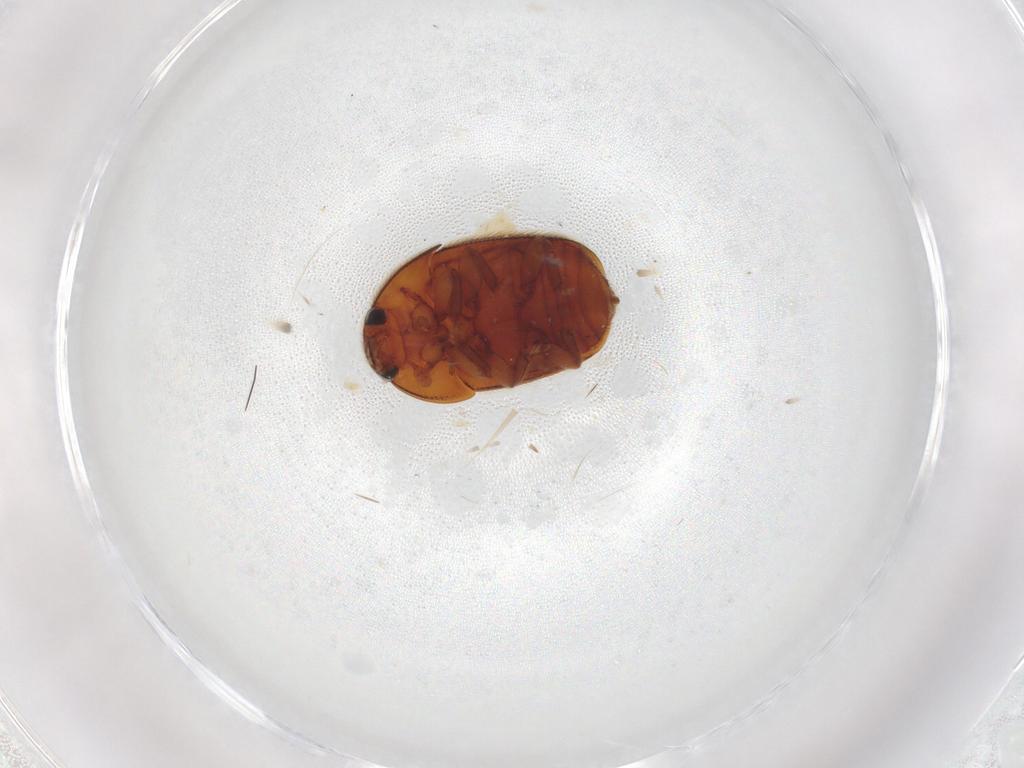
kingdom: Animalia
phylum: Arthropoda
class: Insecta
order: Coleoptera
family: Nitidulidae
